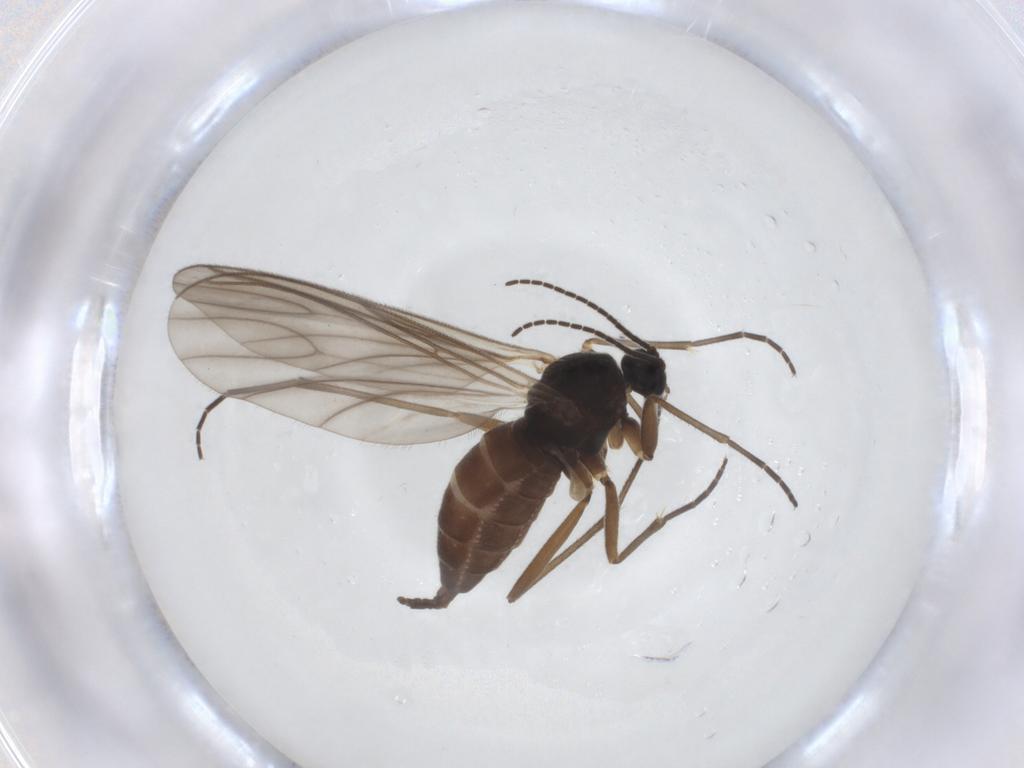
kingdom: Animalia
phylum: Arthropoda
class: Insecta
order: Diptera
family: Sciaridae
